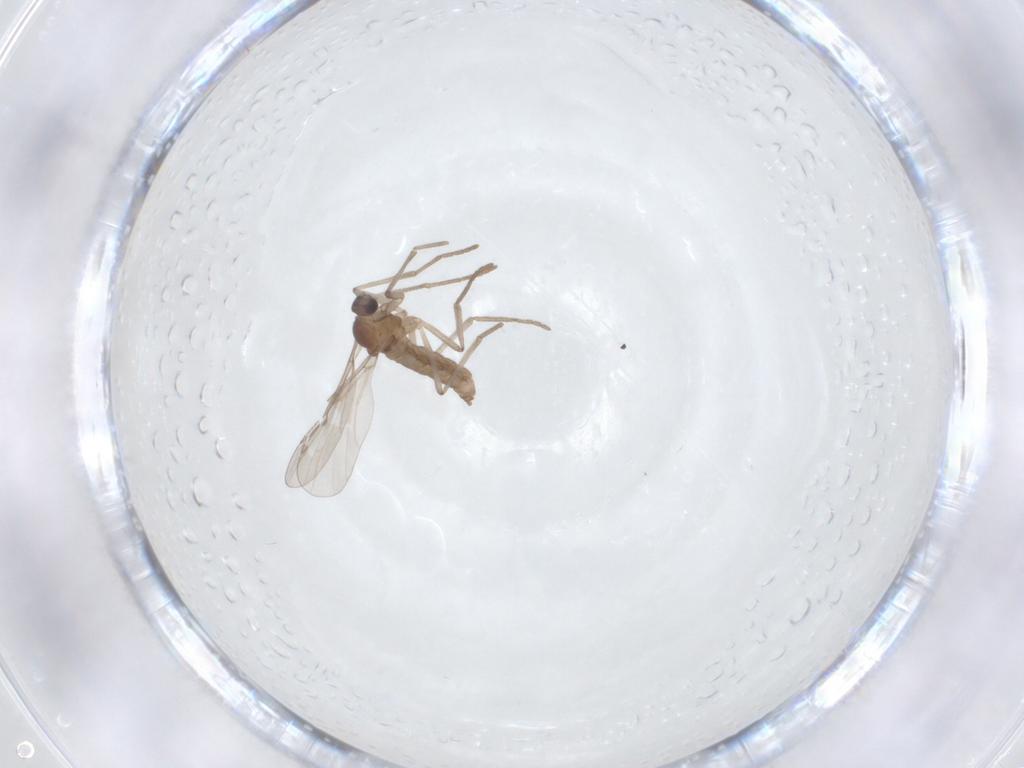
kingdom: Animalia
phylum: Arthropoda
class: Insecta
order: Diptera
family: Cecidomyiidae
